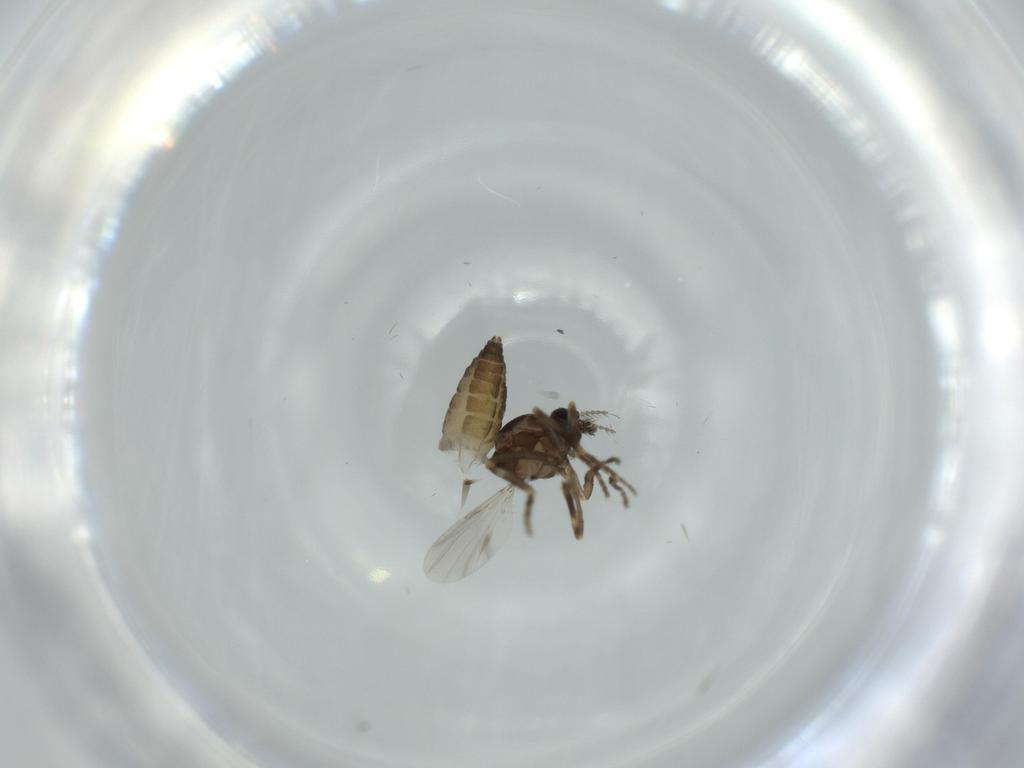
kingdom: Animalia
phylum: Arthropoda
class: Insecta
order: Diptera
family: Ceratopogonidae
